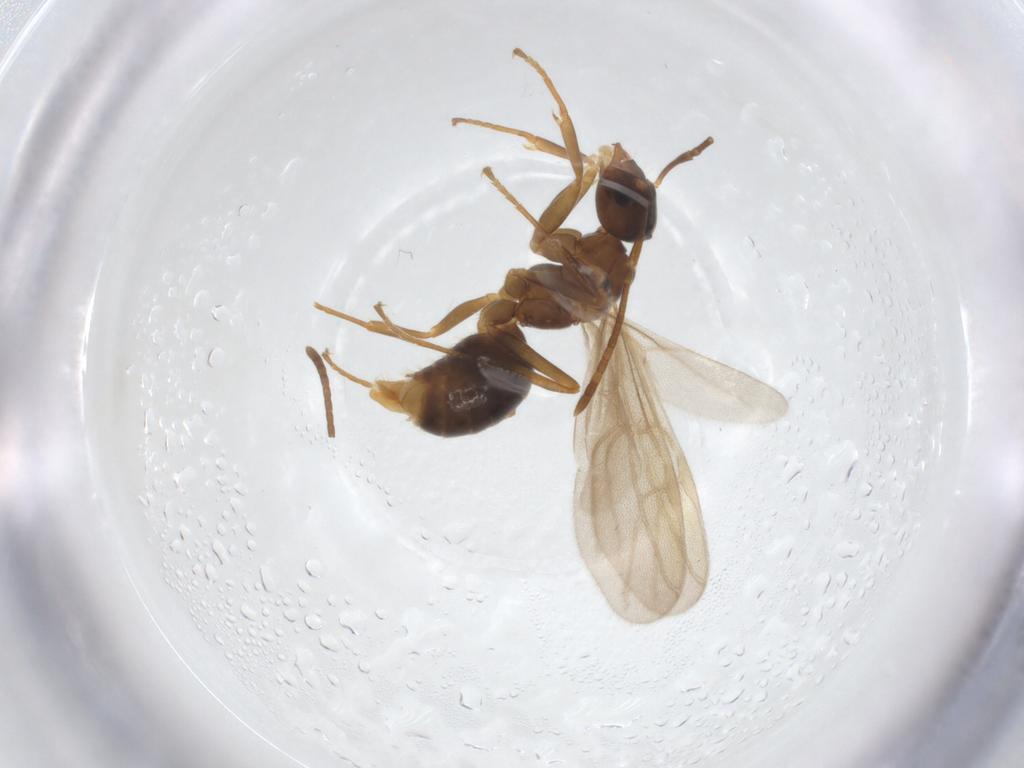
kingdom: Animalia
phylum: Arthropoda
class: Insecta
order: Hymenoptera
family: Formicidae
